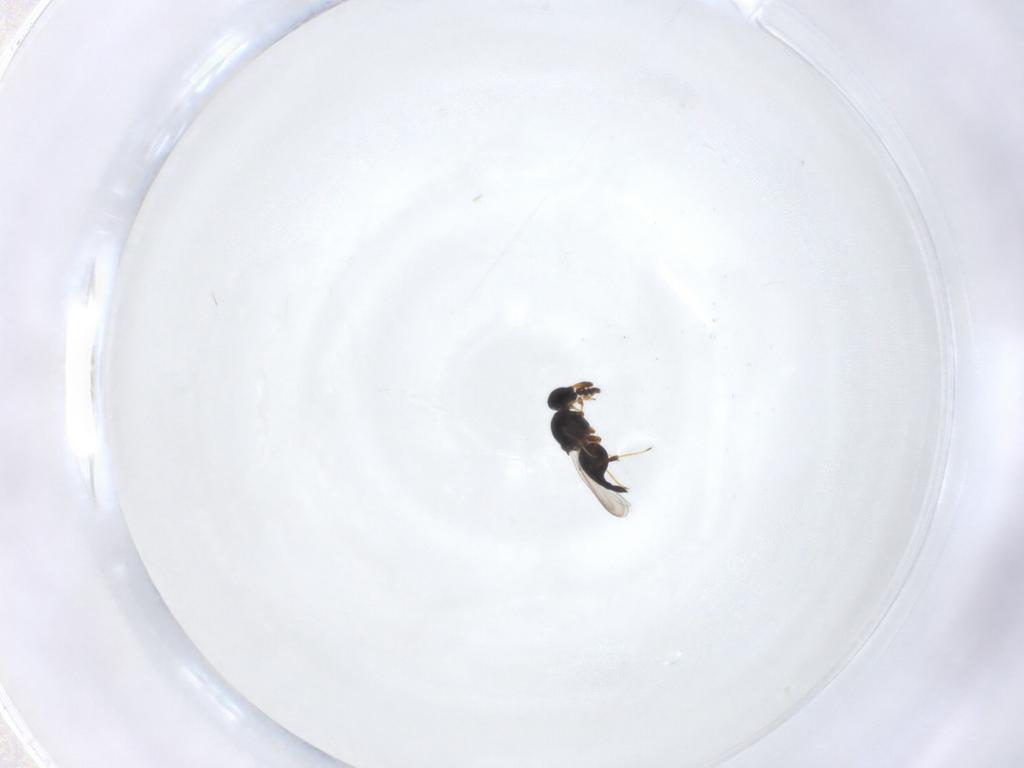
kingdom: Animalia
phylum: Arthropoda
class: Insecta
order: Hymenoptera
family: Platygastridae
